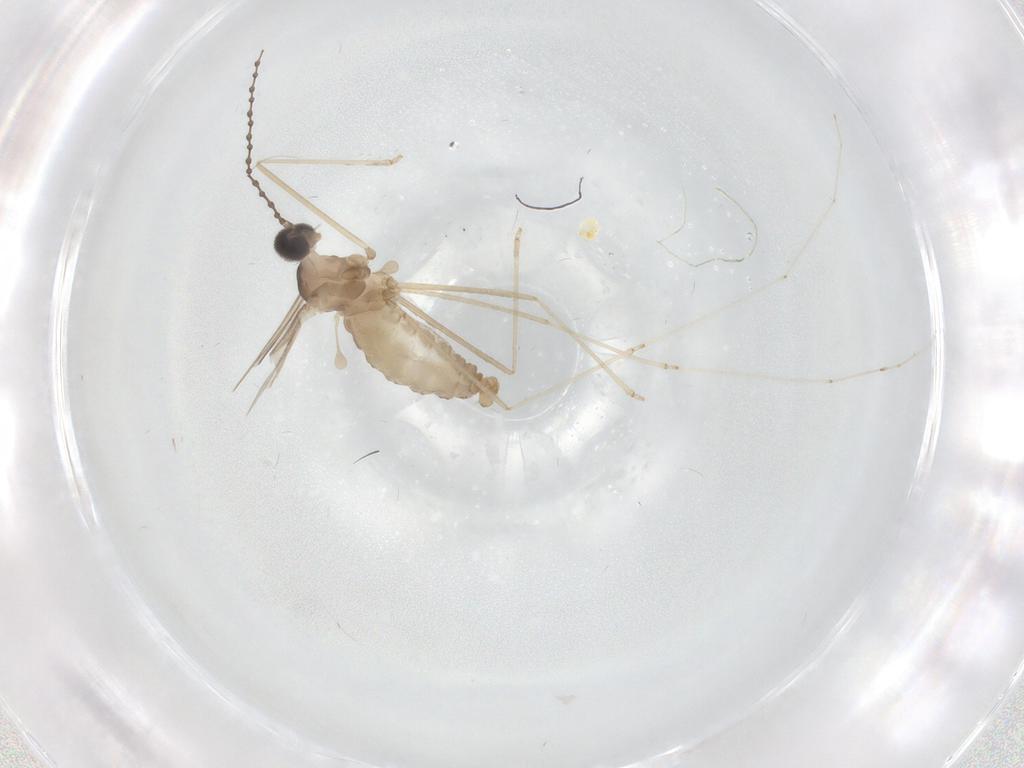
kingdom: Animalia
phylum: Arthropoda
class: Insecta
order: Diptera
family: Cecidomyiidae
